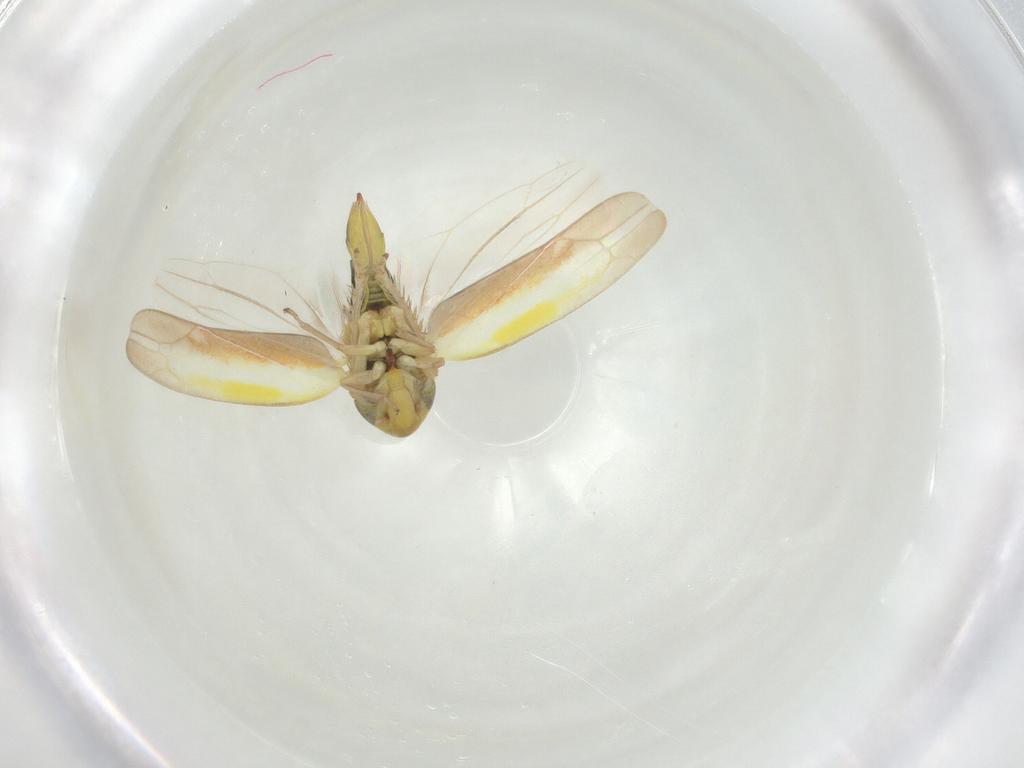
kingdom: Animalia
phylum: Arthropoda
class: Insecta
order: Hemiptera
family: Cicadellidae
